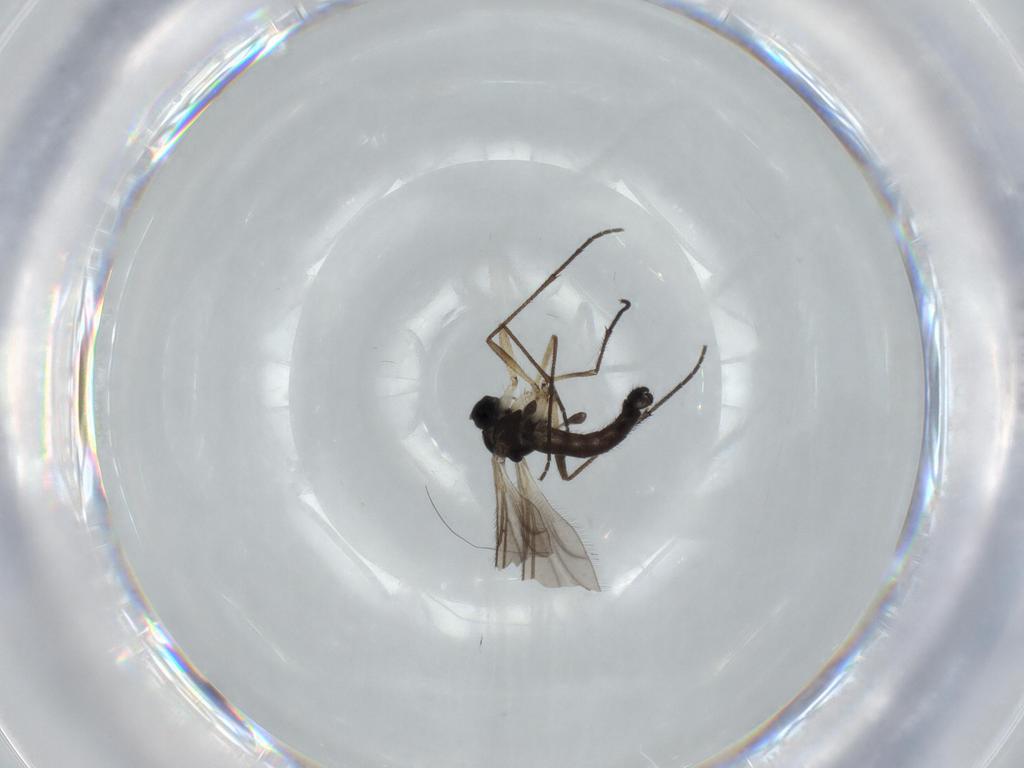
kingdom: Animalia
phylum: Arthropoda
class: Insecta
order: Diptera
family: Sciaridae
